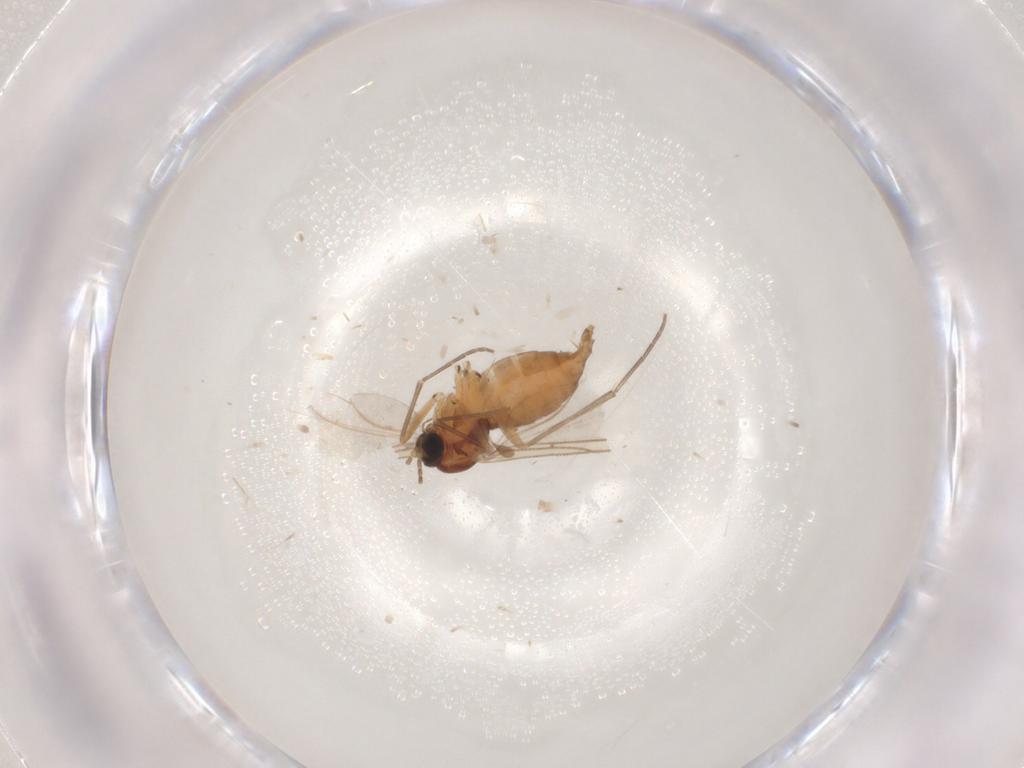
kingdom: Animalia
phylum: Arthropoda
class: Insecta
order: Diptera
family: Sciaridae
